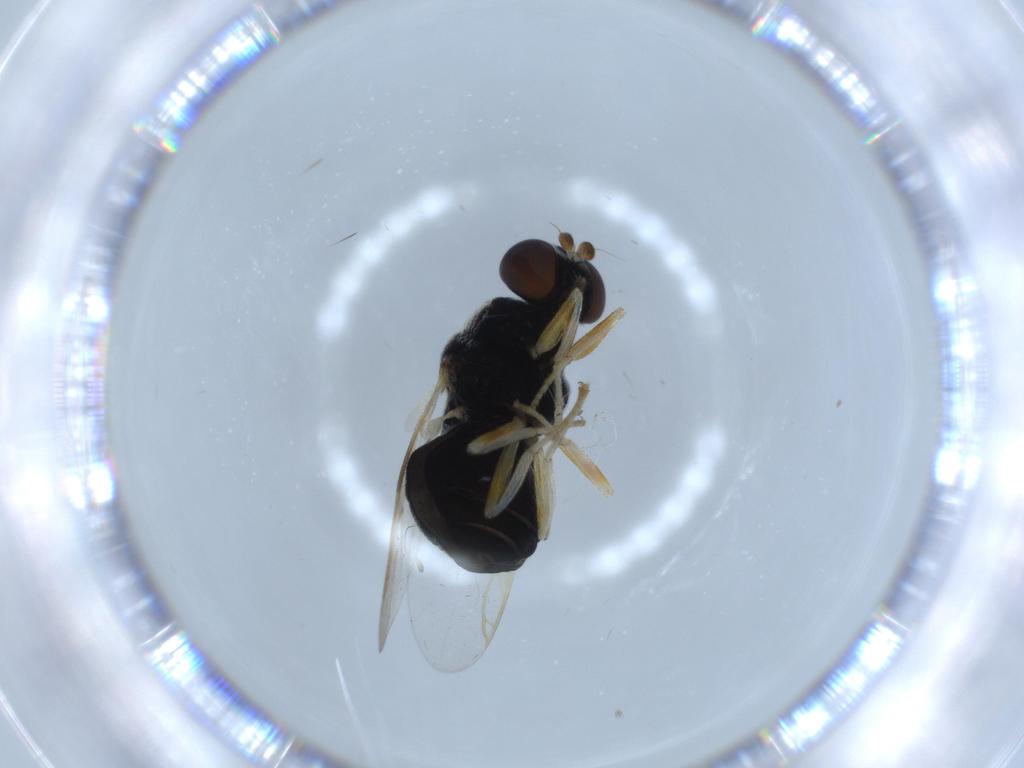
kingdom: Animalia
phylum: Arthropoda
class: Insecta
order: Diptera
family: Stratiomyidae
